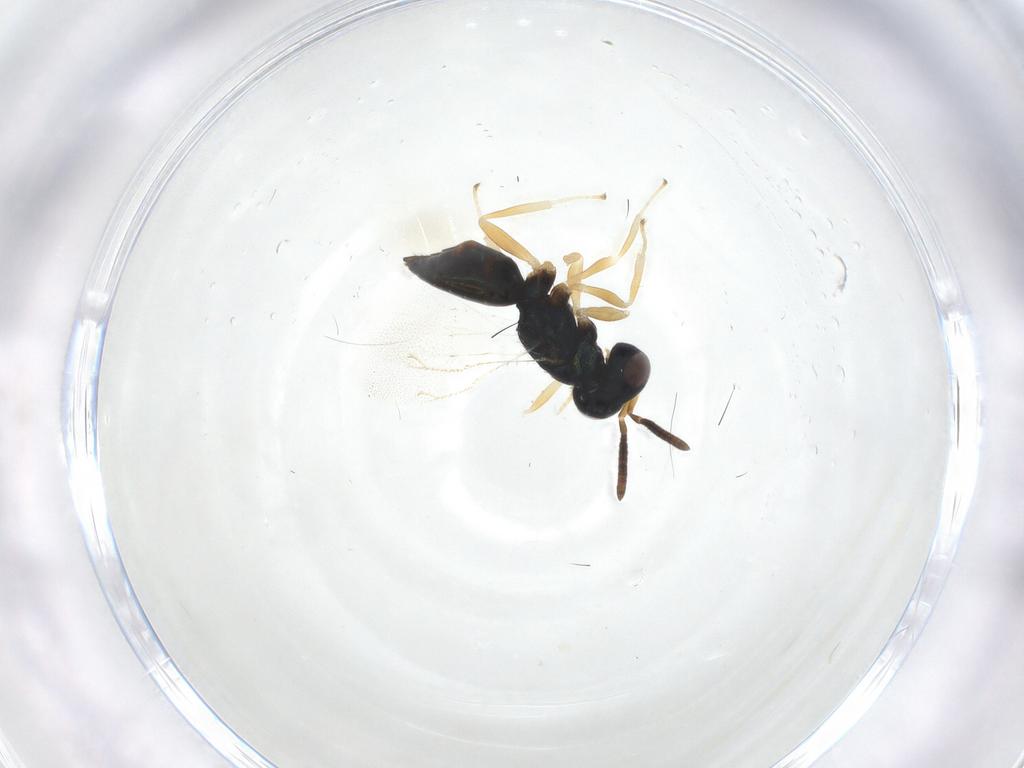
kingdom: Animalia
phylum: Arthropoda
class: Insecta
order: Hymenoptera
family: Pteromalidae
